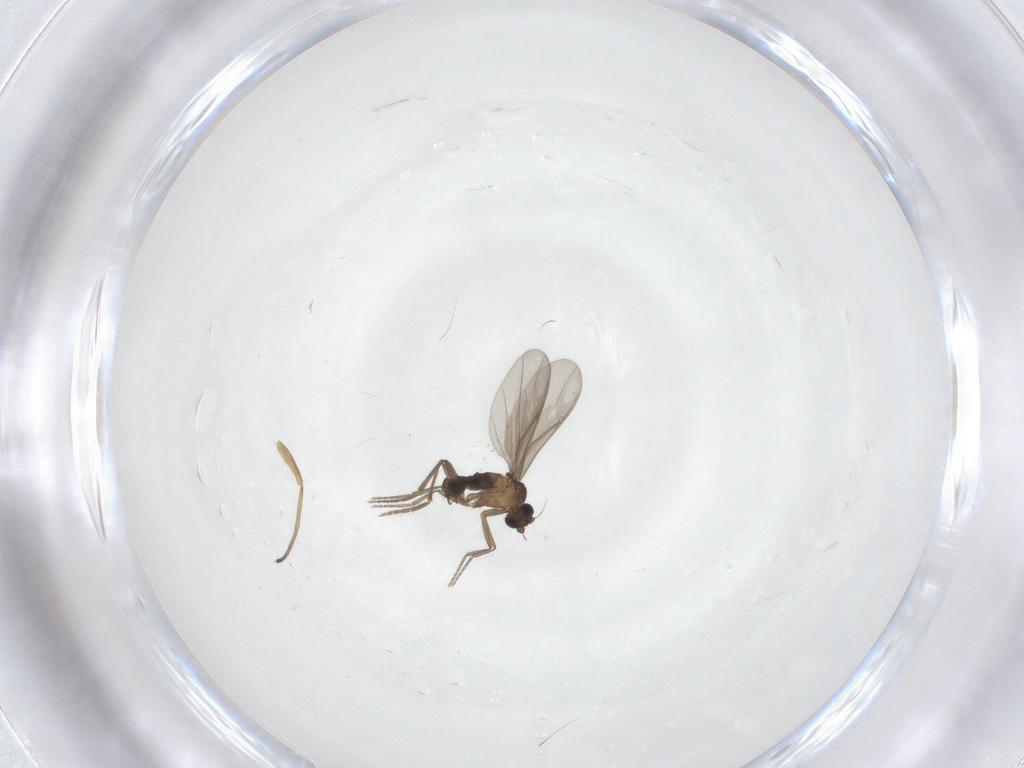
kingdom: Animalia
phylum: Arthropoda
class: Insecta
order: Diptera
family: Phoridae
